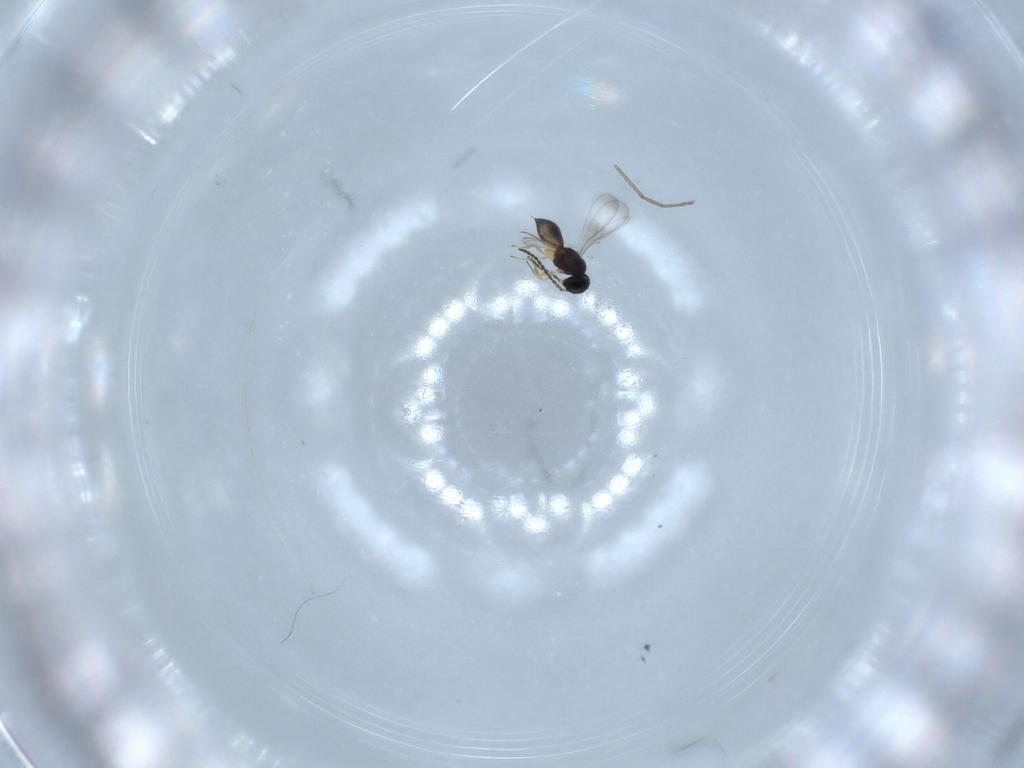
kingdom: Animalia
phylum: Arthropoda
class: Insecta
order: Hymenoptera
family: Scelionidae
